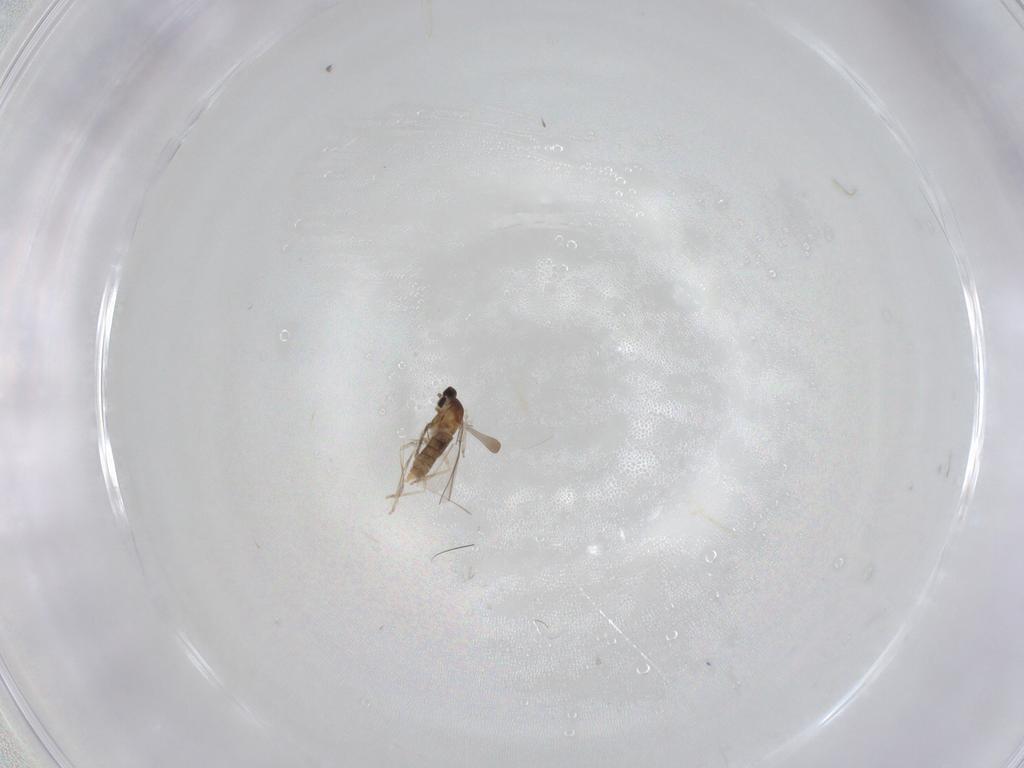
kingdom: Animalia
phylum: Arthropoda
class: Insecta
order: Diptera
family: Cecidomyiidae
